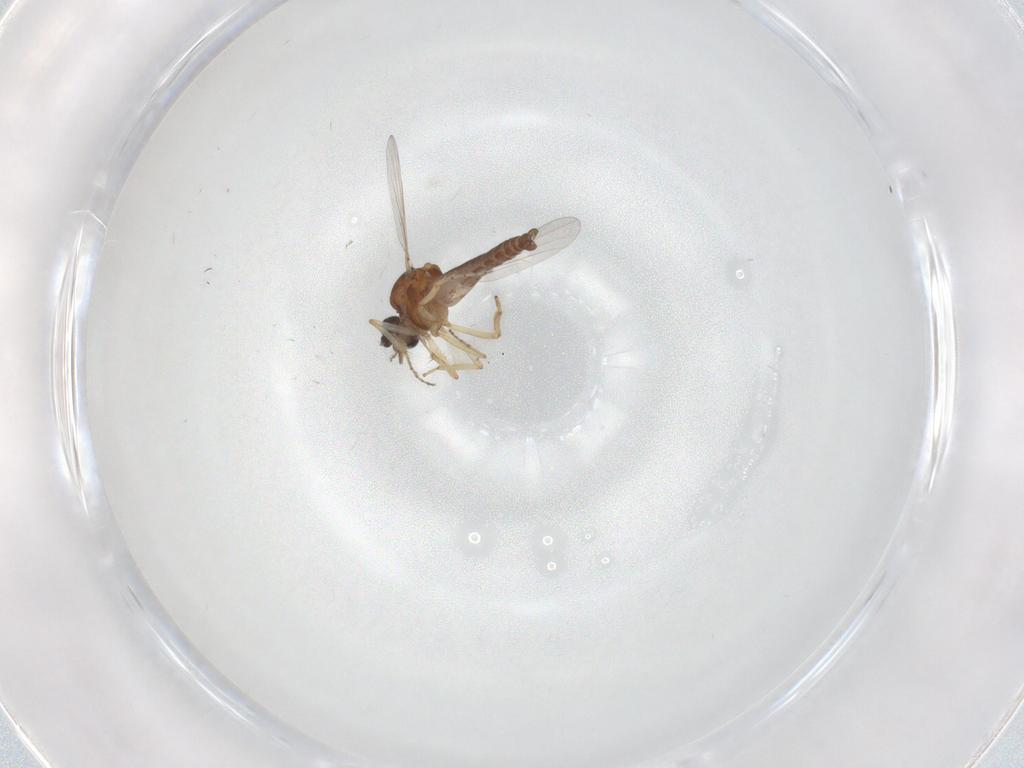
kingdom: Animalia
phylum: Arthropoda
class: Insecta
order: Diptera
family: Ceratopogonidae
